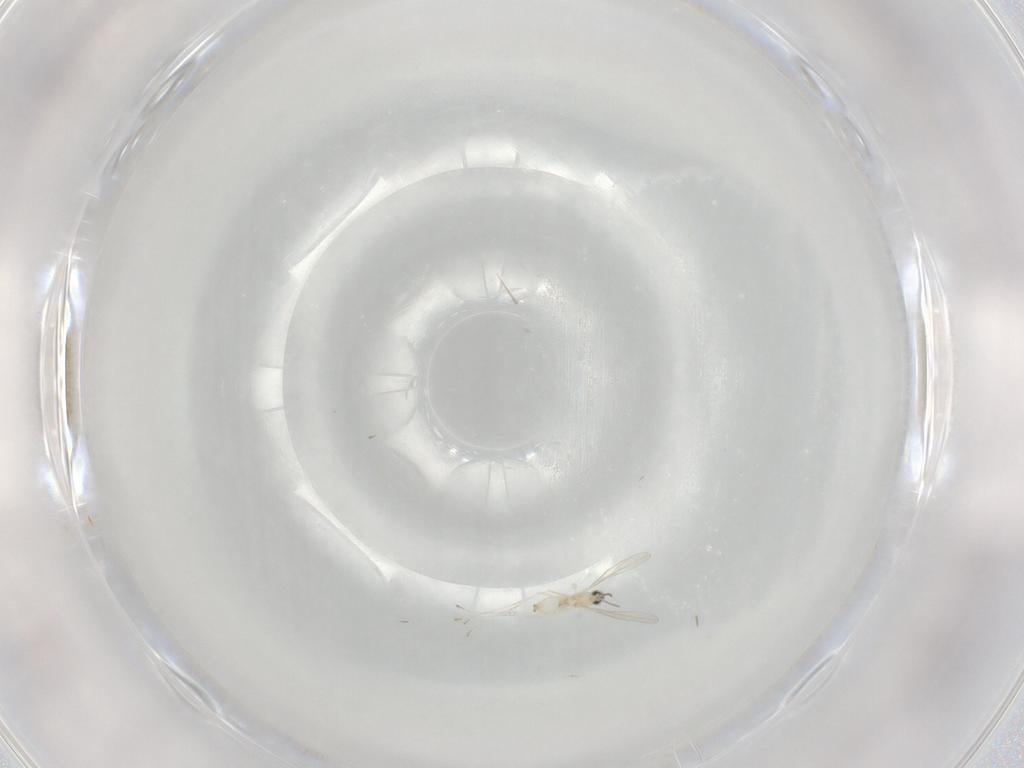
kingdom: Animalia
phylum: Arthropoda
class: Insecta
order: Diptera
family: Cecidomyiidae
